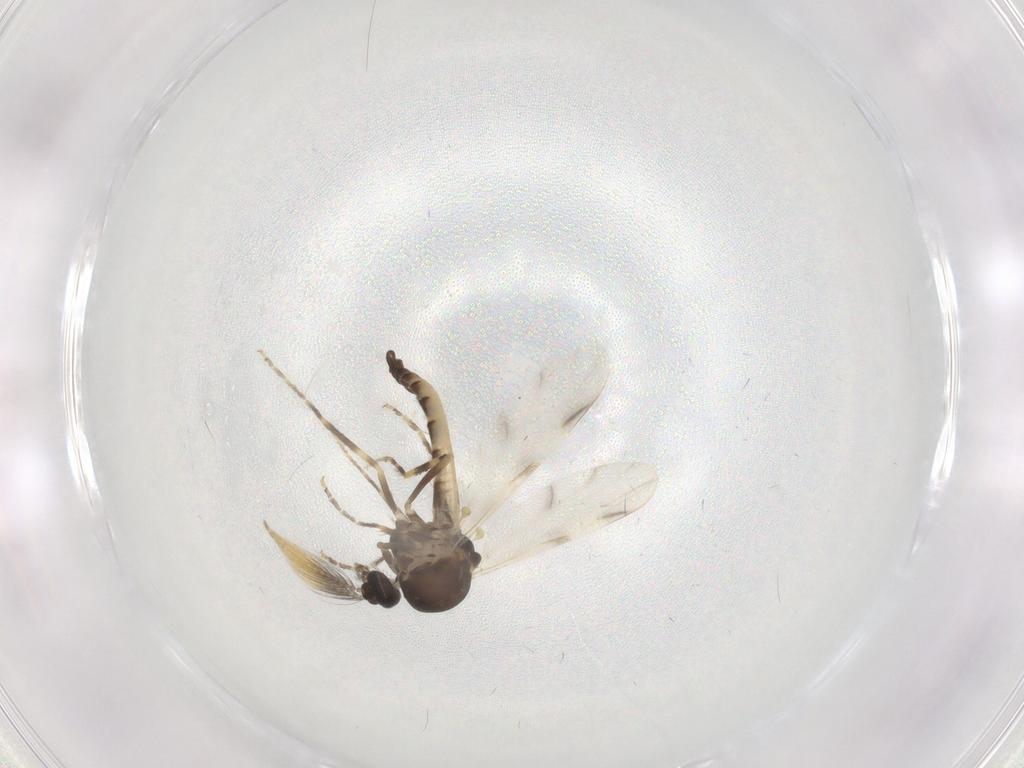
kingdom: Animalia
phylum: Arthropoda
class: Insecta
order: Diptera
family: Ceratopogonidae
